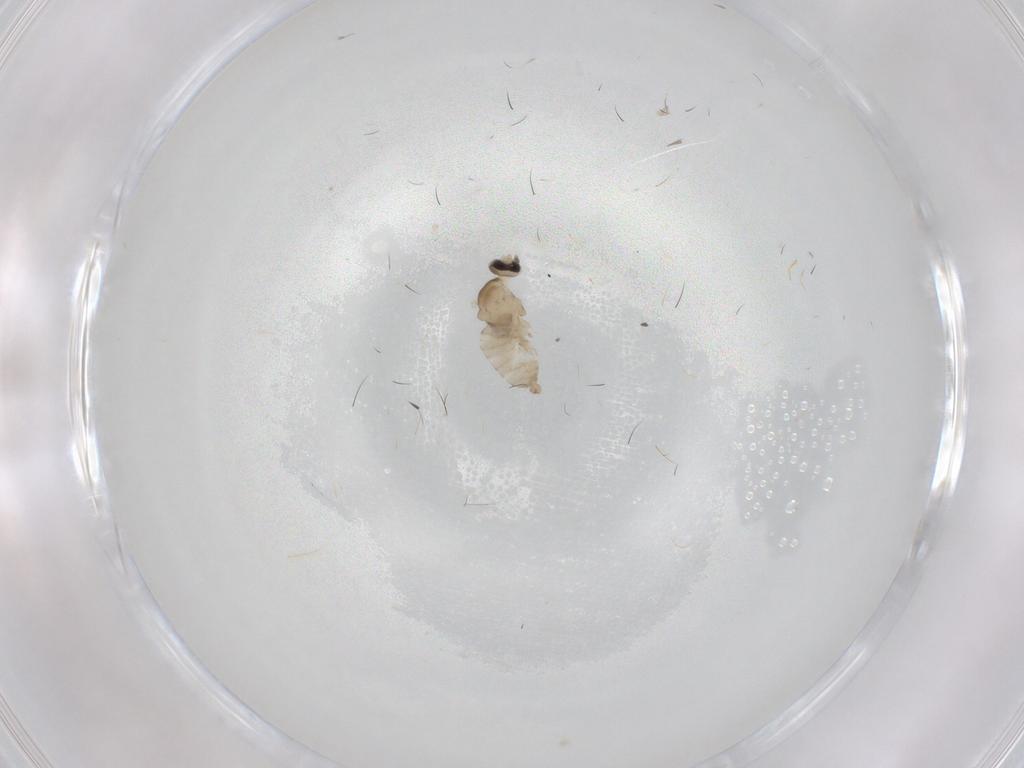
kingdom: Animalia
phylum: Arthropoda
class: Insecta
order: Diptera
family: Cecidomyiidae
